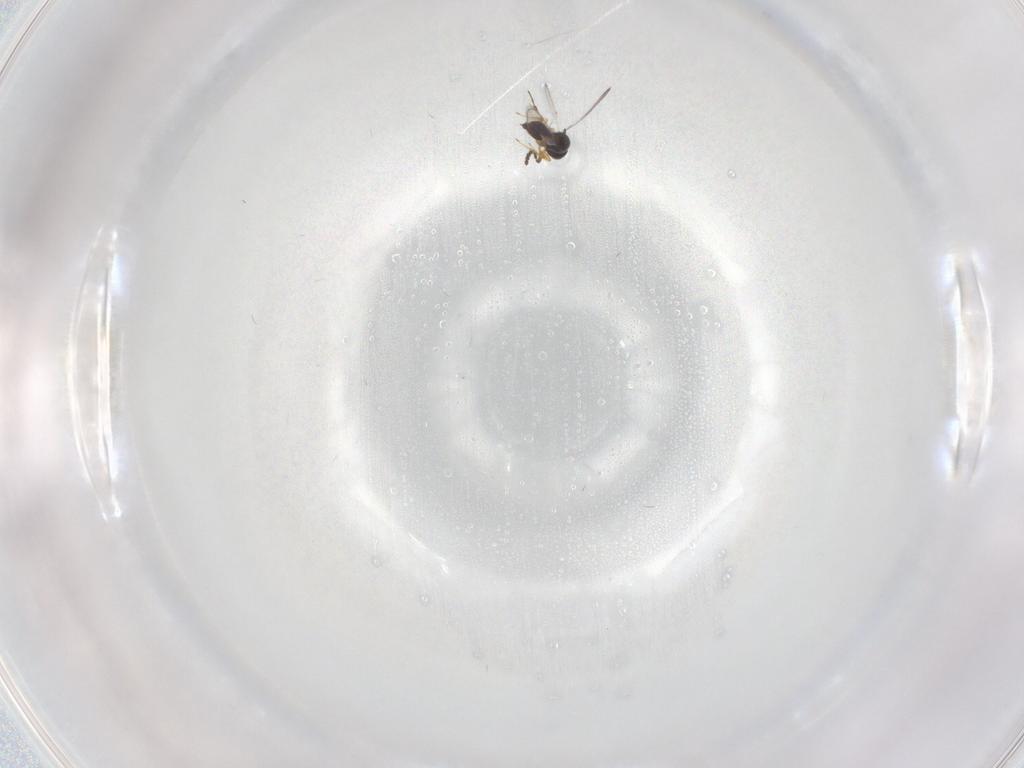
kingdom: Animalia
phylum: Arthropoda
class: Insecta
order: Hymenoptera
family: Platygastridae
